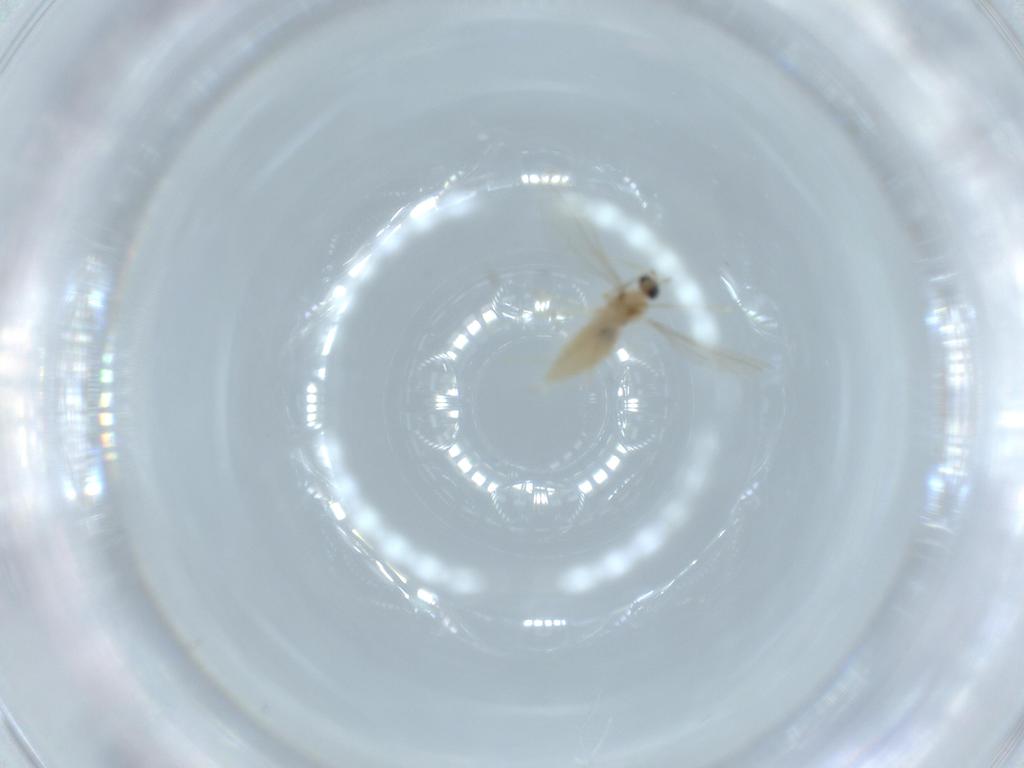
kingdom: Animalia
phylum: Arthropoda
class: Insecta
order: Diptera
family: Cecidomyiidae
